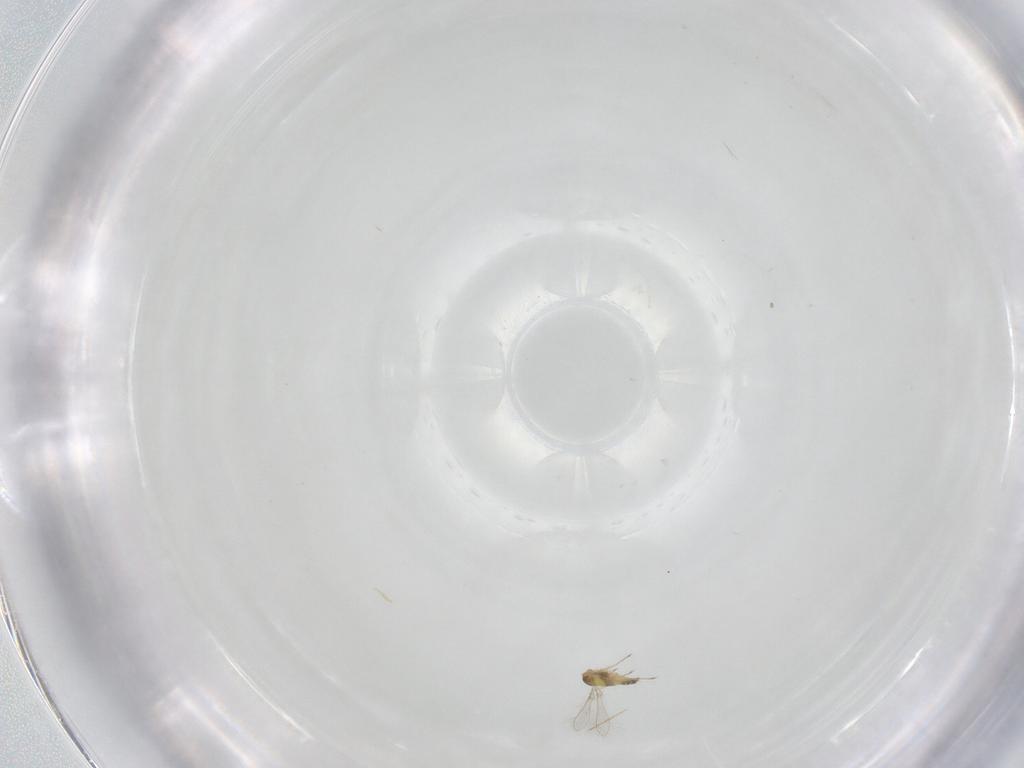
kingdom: Animalia
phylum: Arthropoda
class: Insecta
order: Hymenoptera
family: Mymaridae
